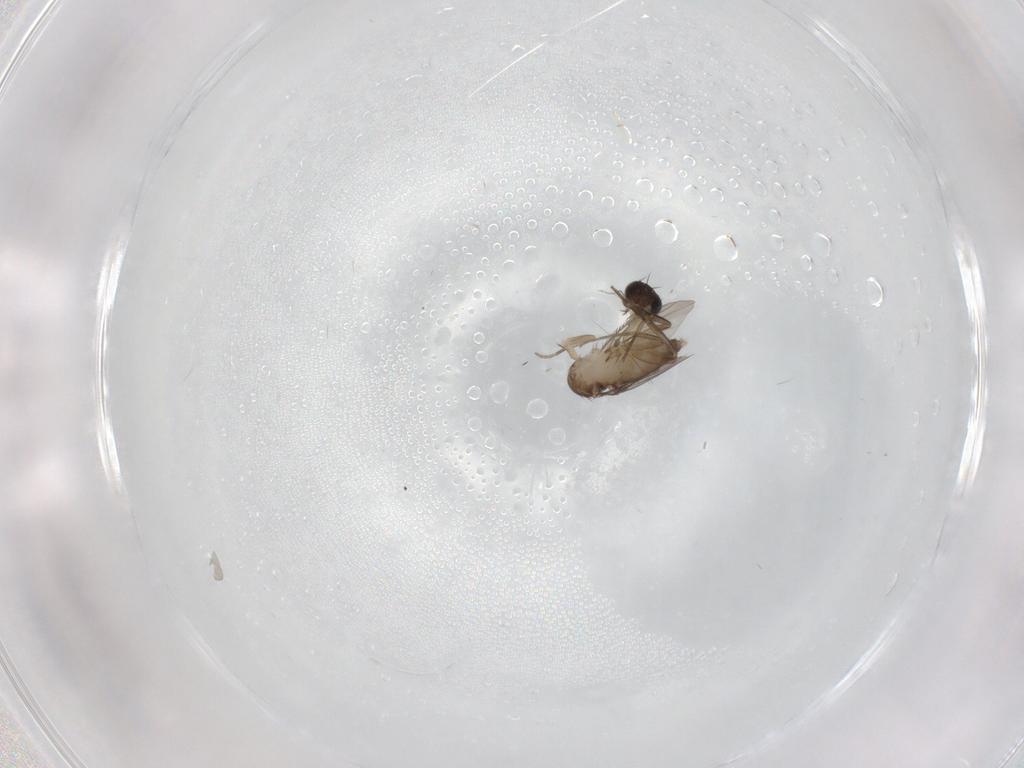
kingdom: Animalia
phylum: Arthropoda
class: Insecta
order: Diptera
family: Phoridae
